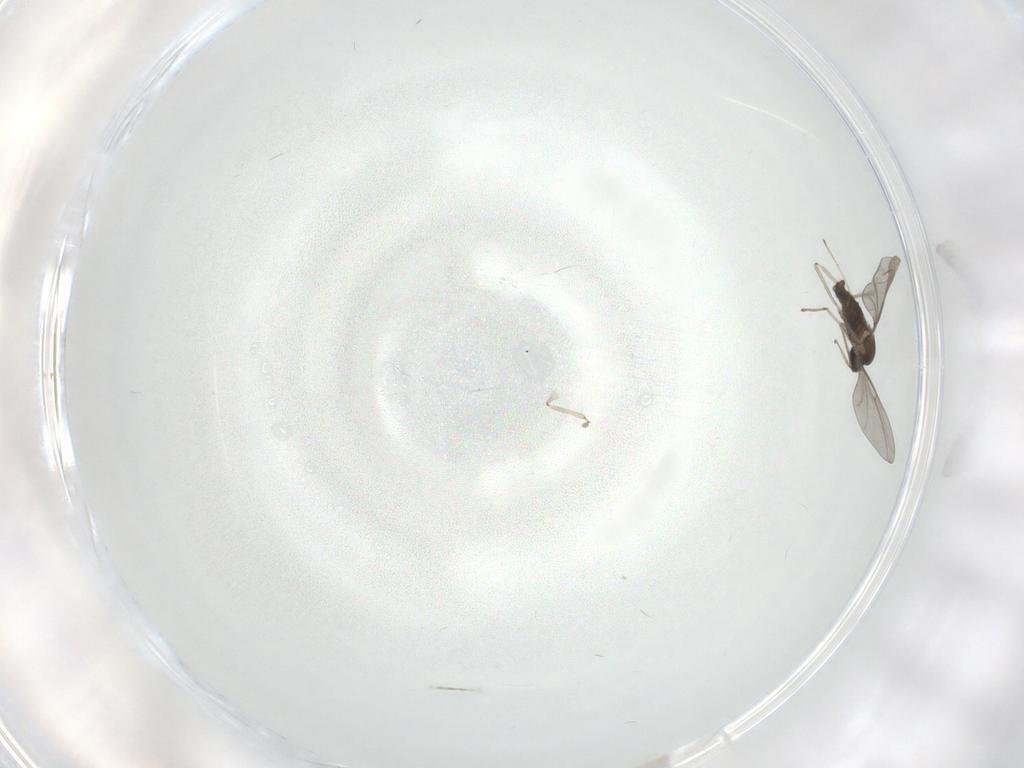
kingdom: Animalia
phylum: Arthropoda
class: Insecta
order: Diptera
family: Cecidomyiidae
